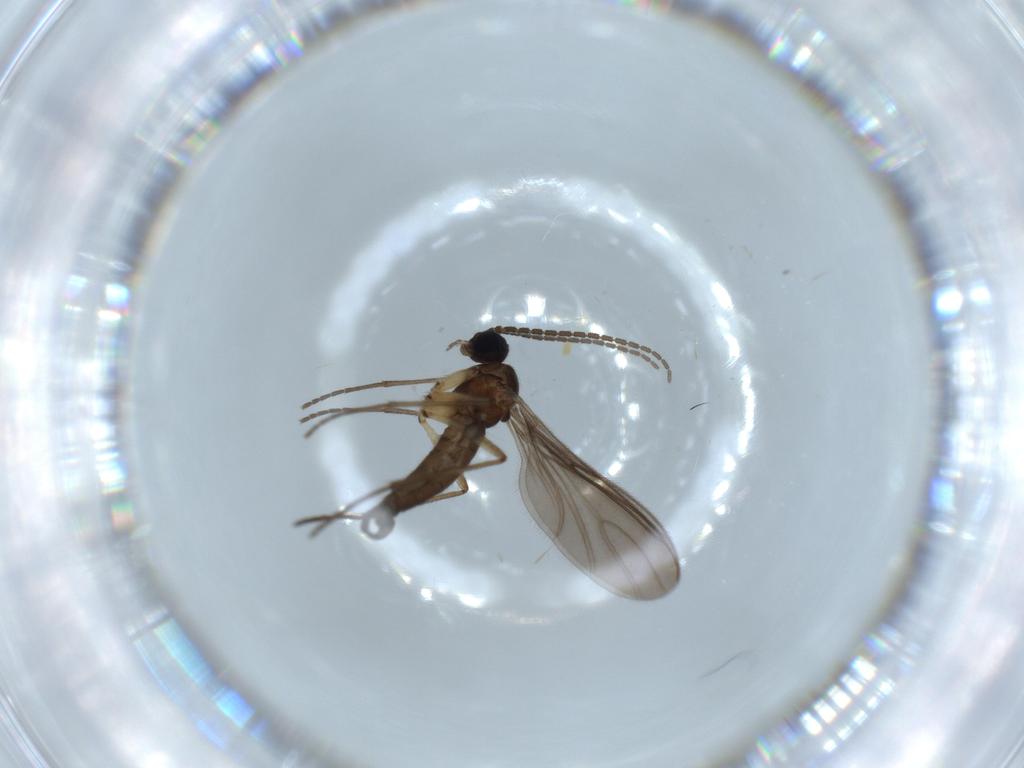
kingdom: Animalia
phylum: Arthropoda
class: Insecta
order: Diptera
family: Sciaridae
